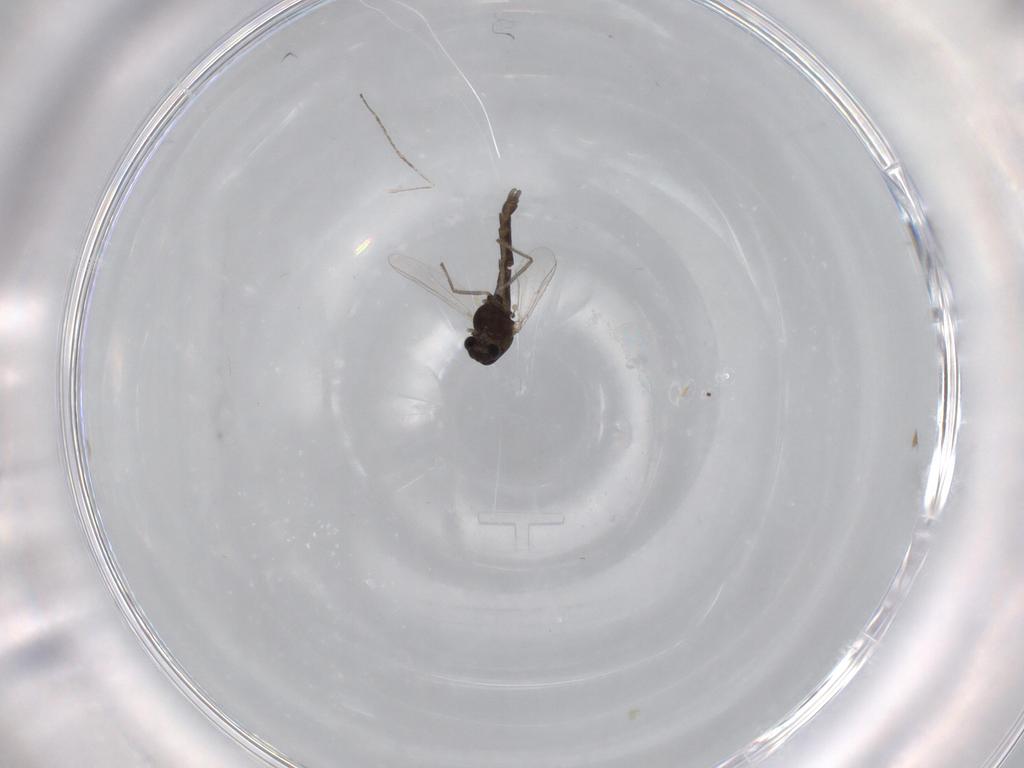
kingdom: Animalia
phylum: Arthropoda
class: Insecta
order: Diptera
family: Chironomidae
